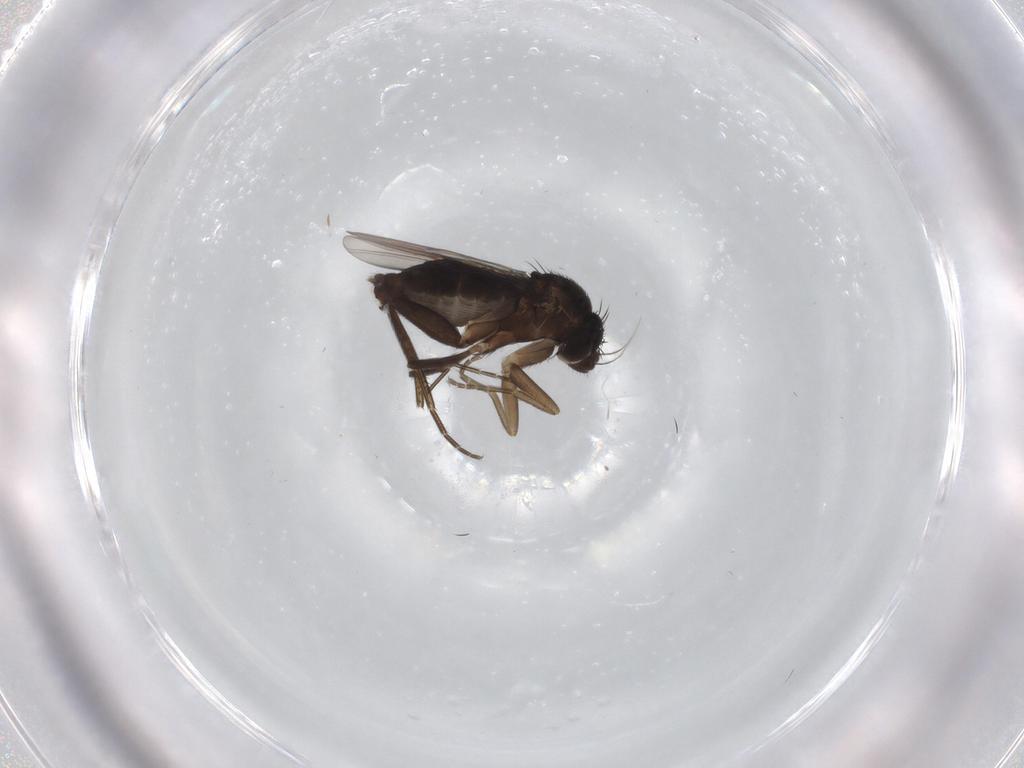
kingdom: Animalia
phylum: Arthropoda
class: Insecta
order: Diptera
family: Phoridae
